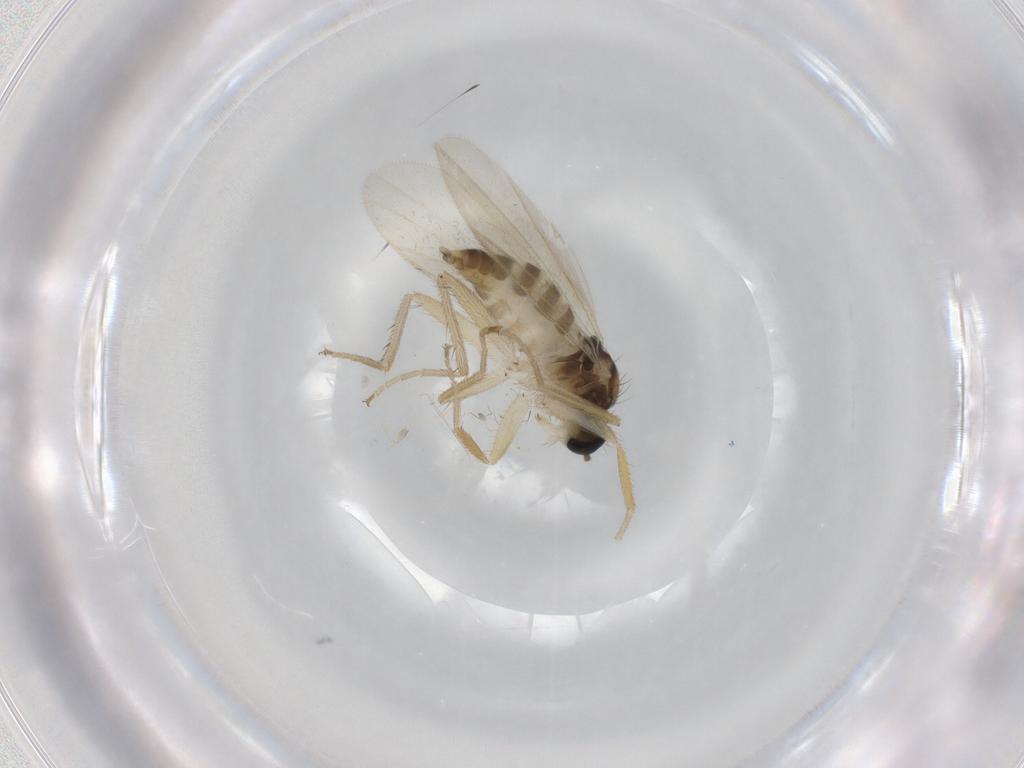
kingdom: Animalia
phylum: Arthropoda
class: Insecta
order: Diptera
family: Hybotidae
